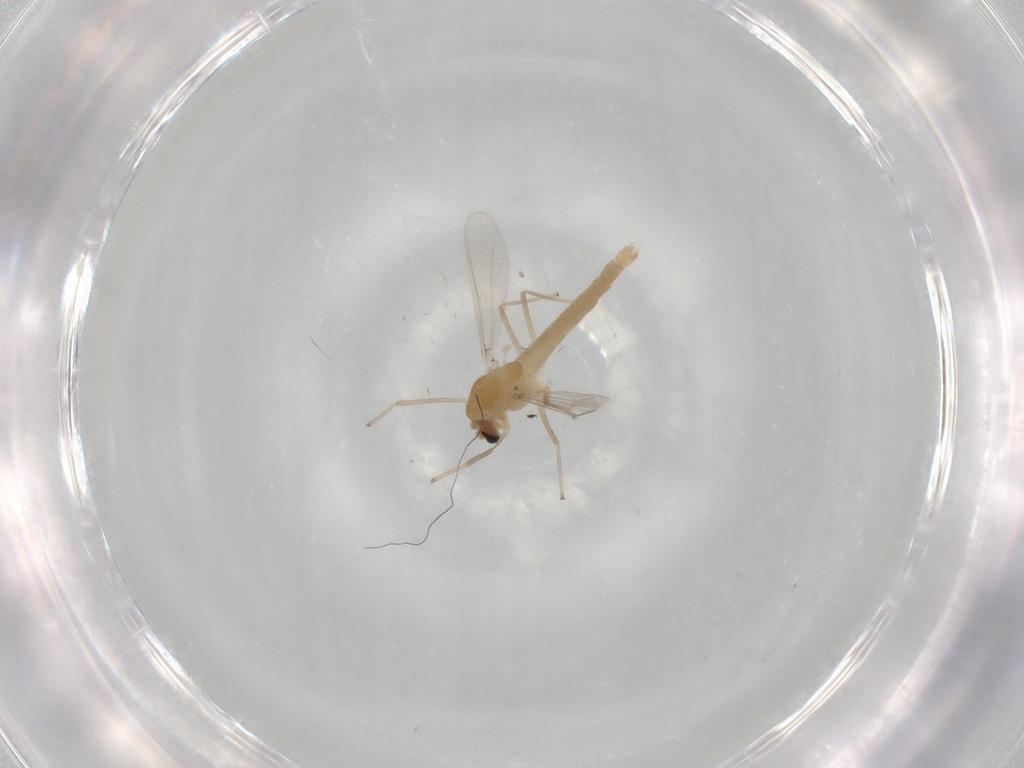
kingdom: Animalia
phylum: Arthropoda
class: Insecta
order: Diptera
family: Chironomidae
